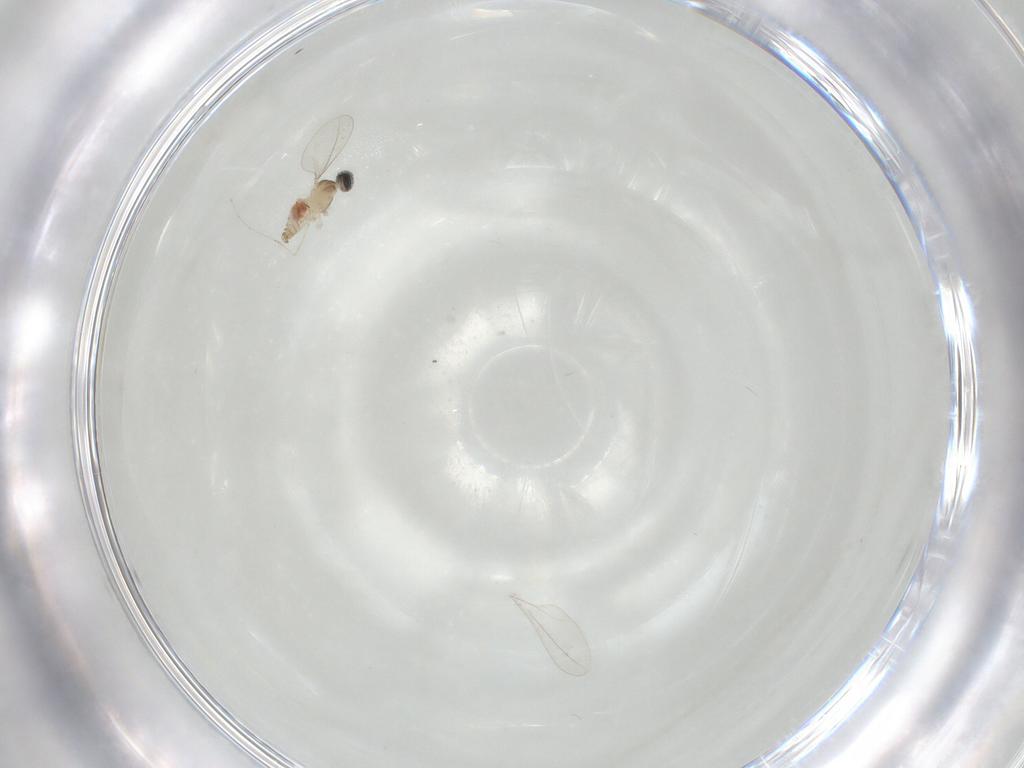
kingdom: Animalia
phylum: Arthropoda
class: Insecta
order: Diptera
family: Cecidomyiidae
